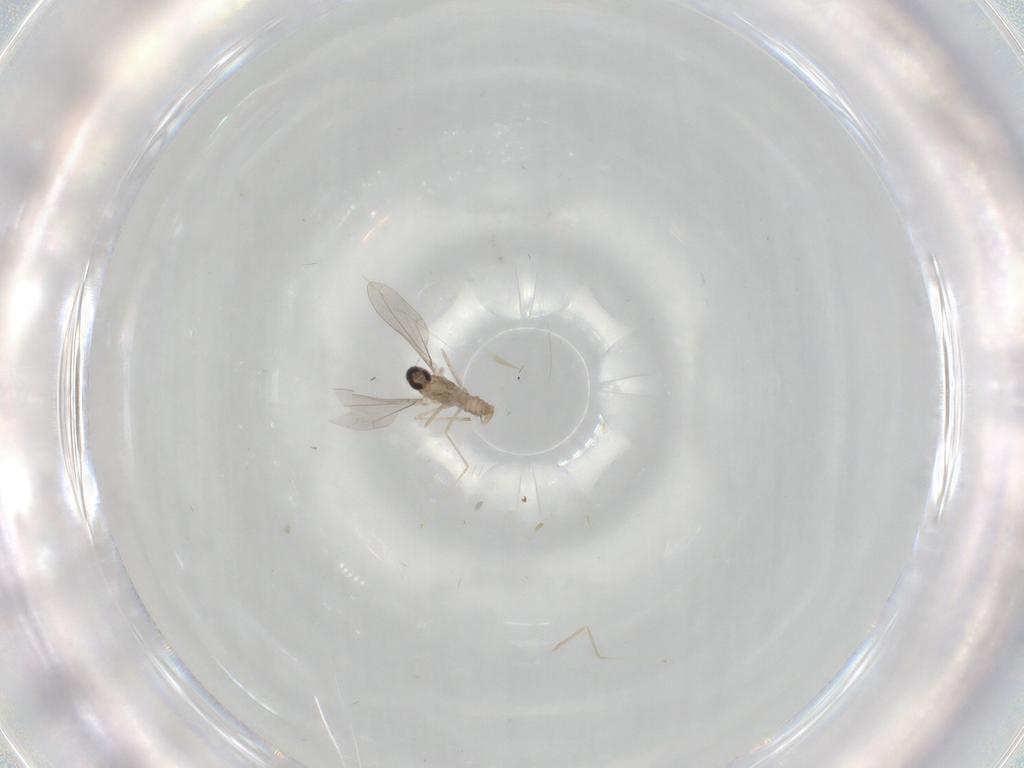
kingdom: Animalia
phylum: Arthropoda
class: Insecta
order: Diptera
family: Cecidomyiidae
